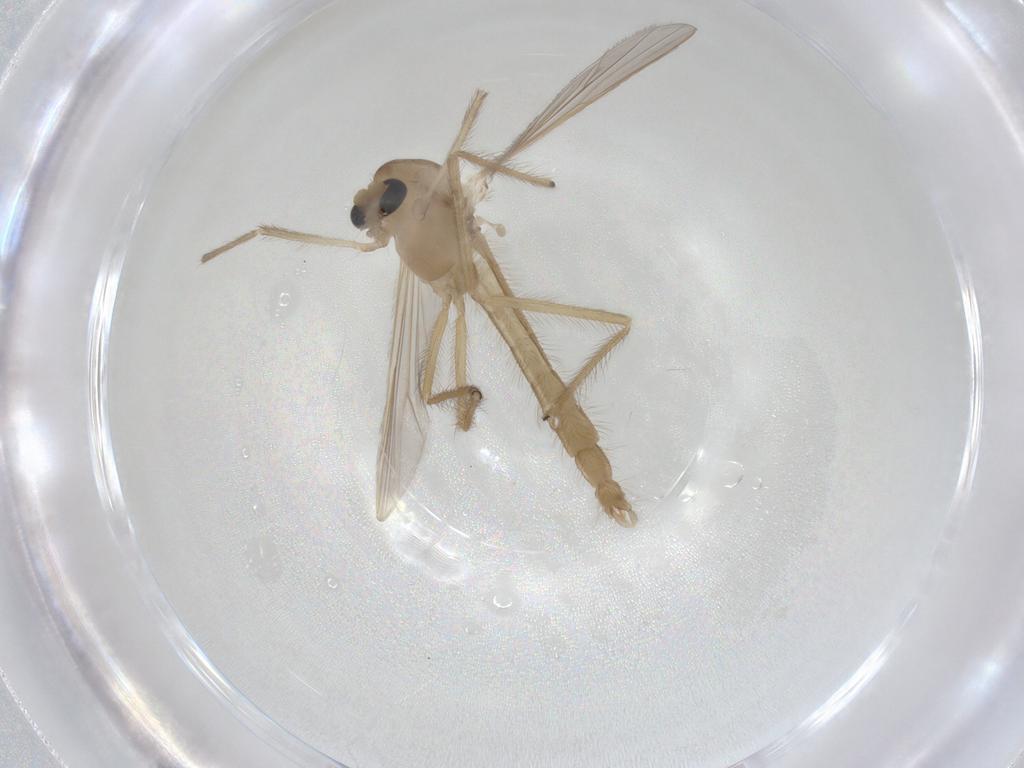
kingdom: Animalia
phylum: Arthropoda
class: Insecta
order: Diptera
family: Chironomidae
